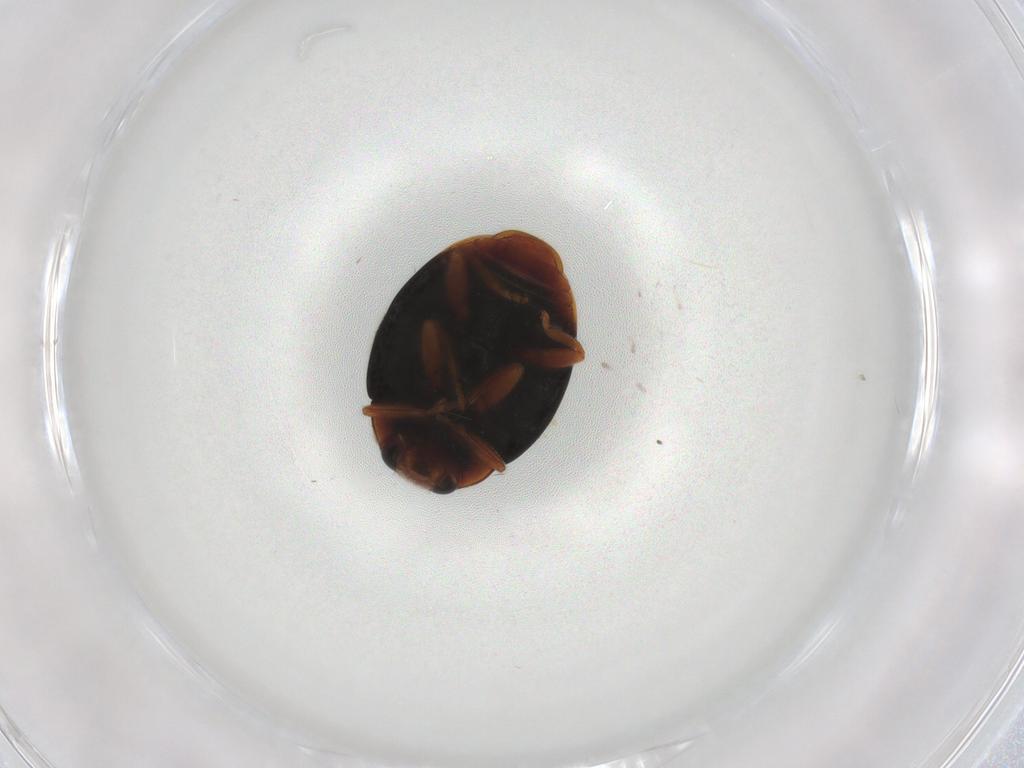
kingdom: Animalia
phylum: Arthropoda
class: Insecta
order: Coleoptera
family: Coccinellidae
